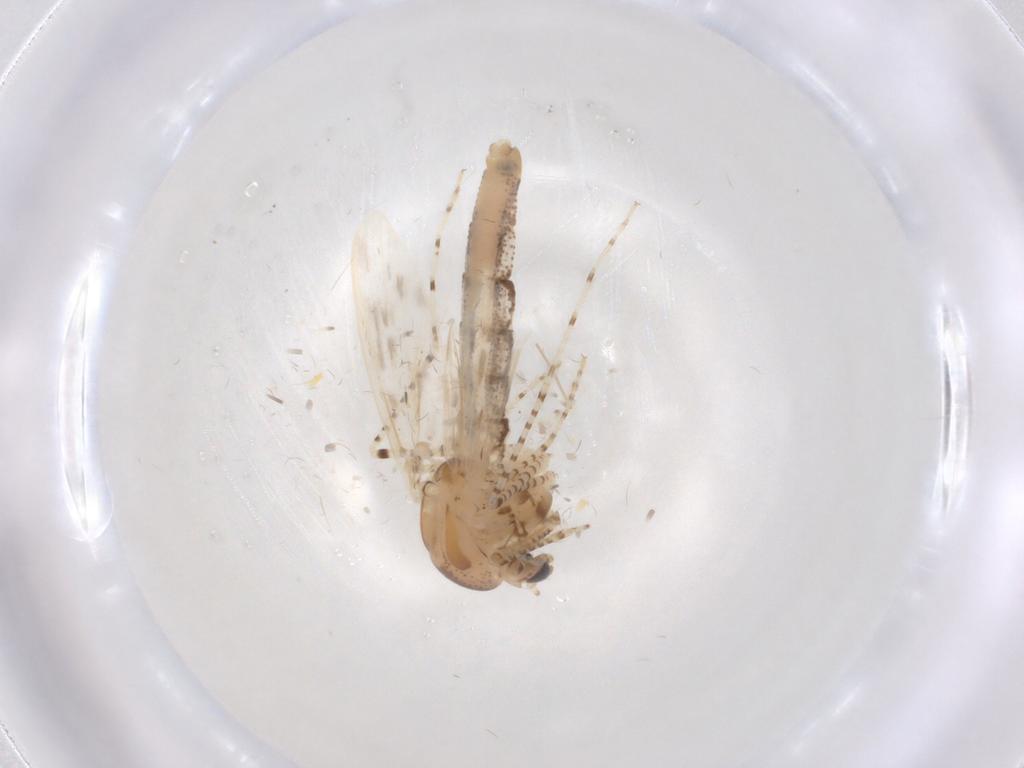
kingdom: Animalia
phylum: Arthropoda
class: Insecta
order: Diptera
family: Chaoboridae
